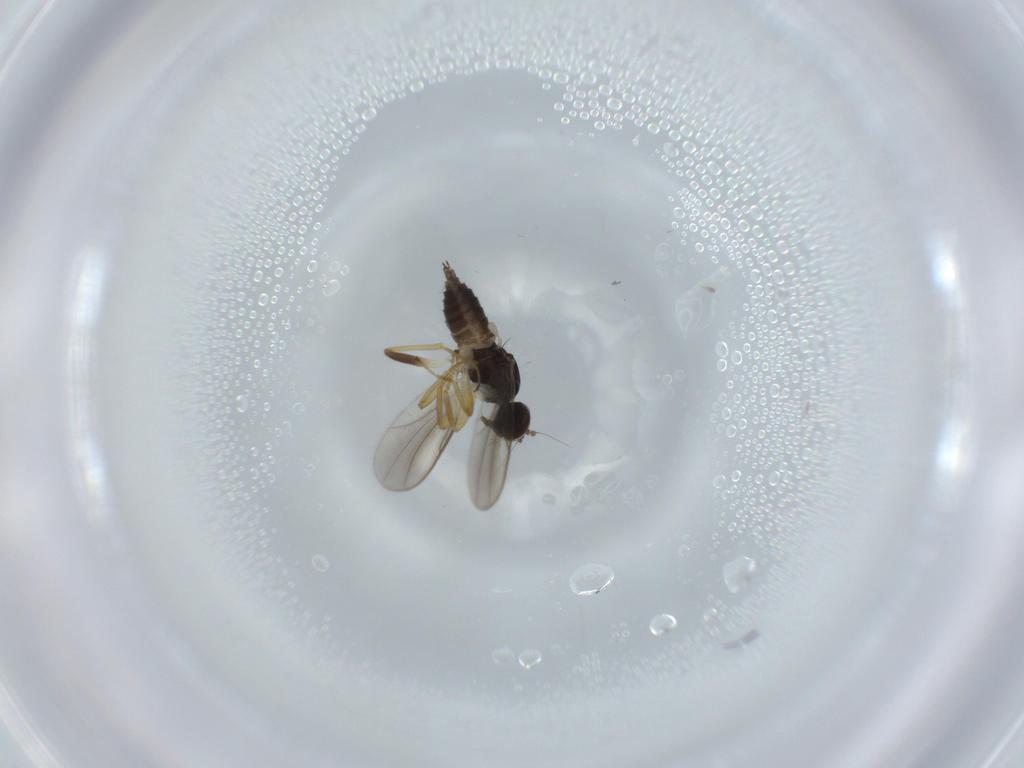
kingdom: Animalia
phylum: Arthropoda
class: Insecta
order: Diptera
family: Hybotidae
